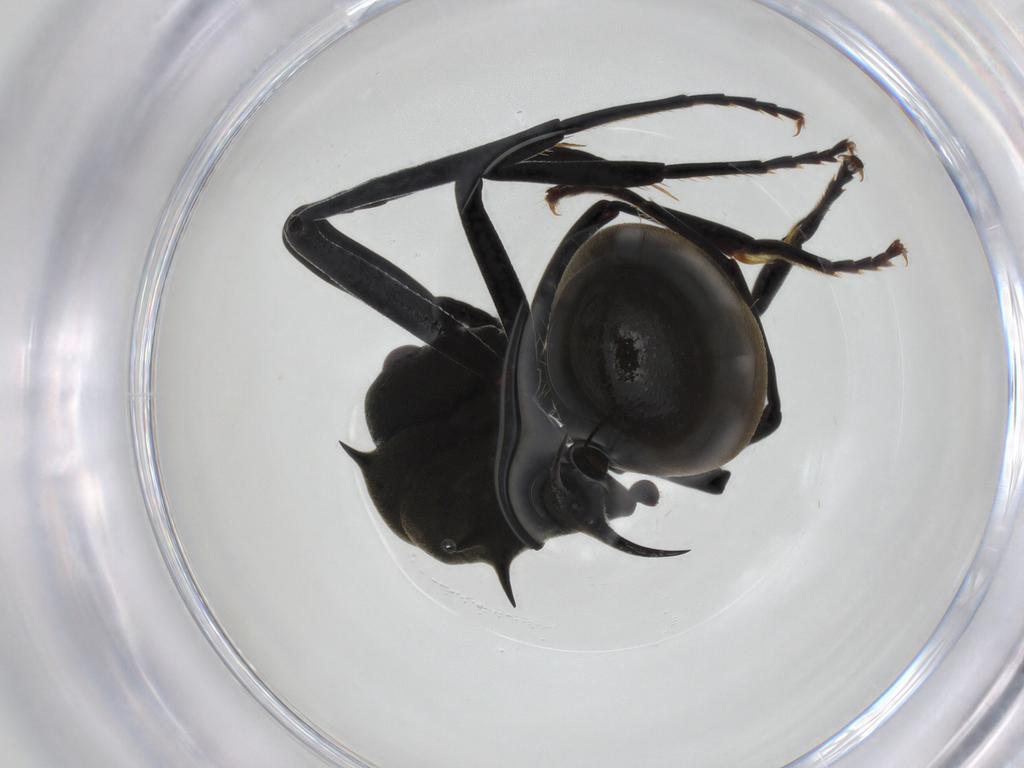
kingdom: Animalia
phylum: Arthropoda
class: Insecta
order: Hymenoptera
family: Formicidae
